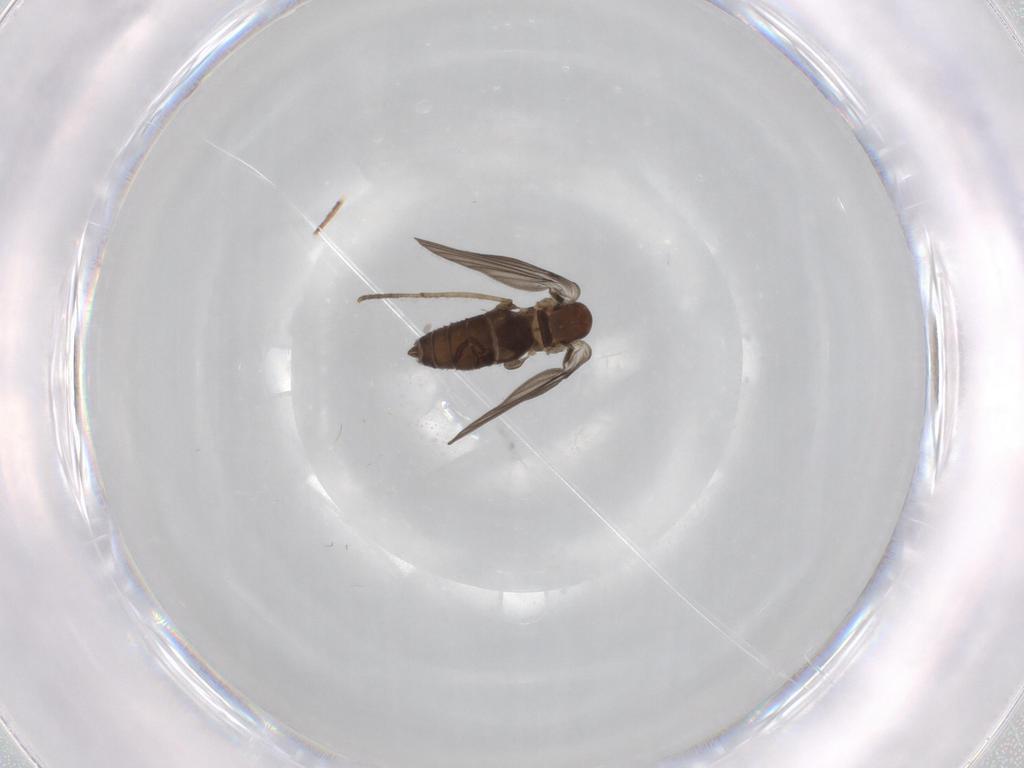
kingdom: Animalia
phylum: Arthropoda
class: Insecta
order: Diptera
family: Psychodidae
